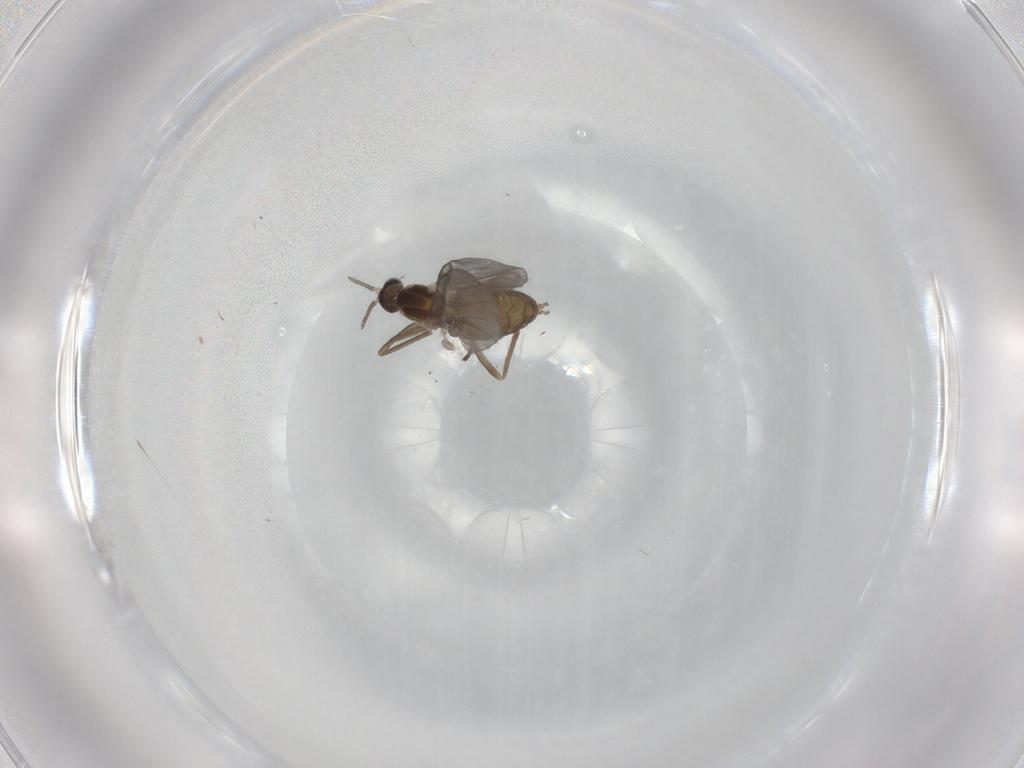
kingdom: Animalia
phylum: Arthropoda
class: Insecta
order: Diptera
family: Cecidomyiidae
